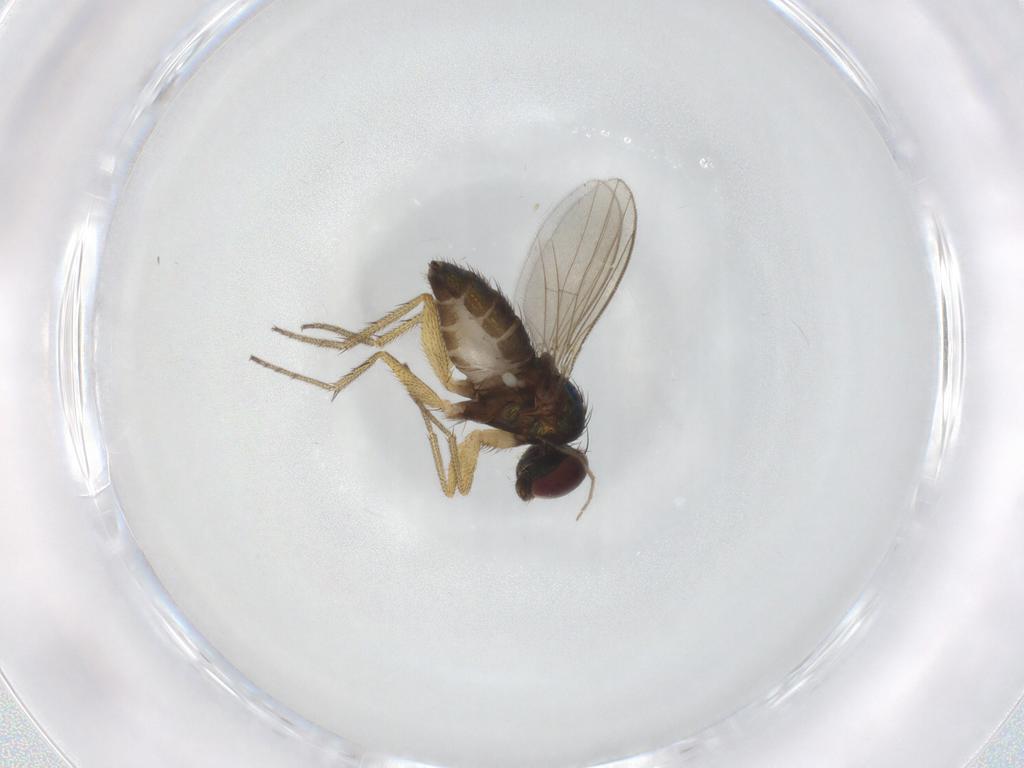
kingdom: Animalia
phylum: Arthropoda
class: Insecta
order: Diptera
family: Dolichopodidae
